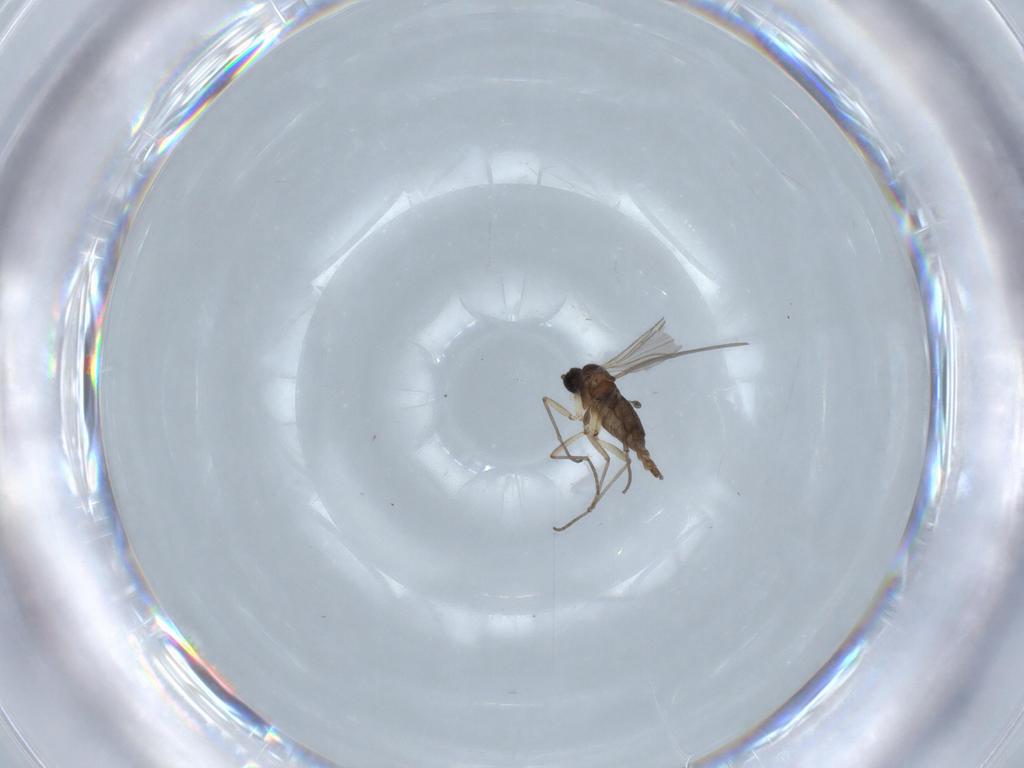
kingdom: Animalia
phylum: Arthropoda
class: Insecta
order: Diptera
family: Sciaridae
